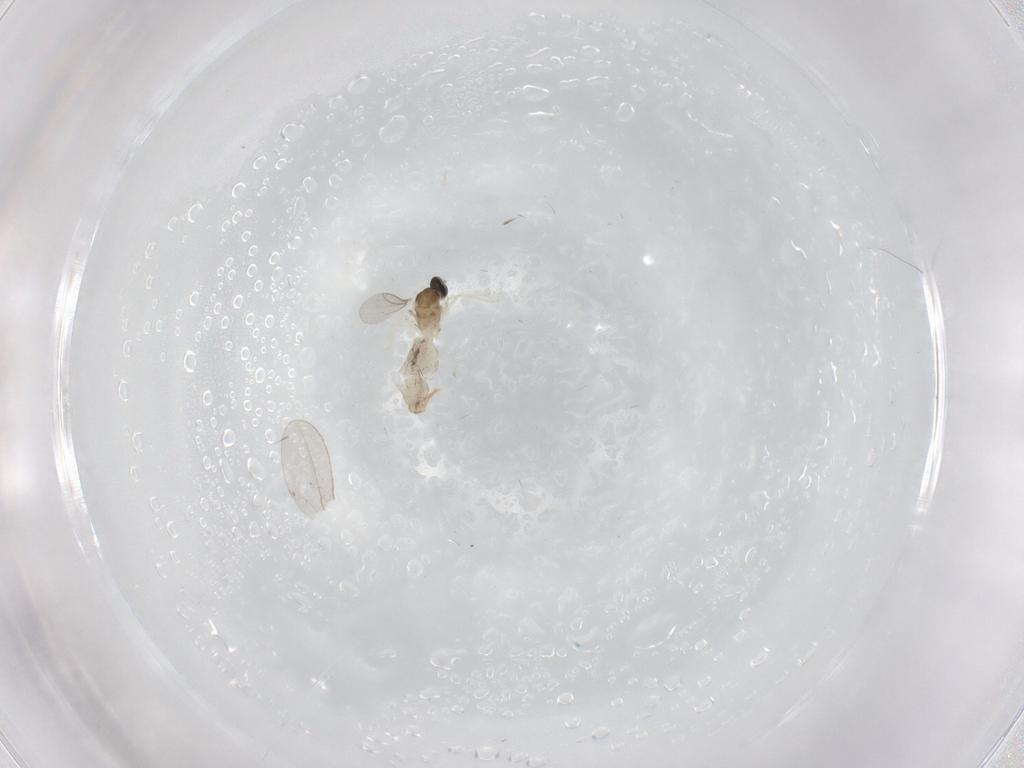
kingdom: Animalia
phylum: Arthropoda
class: Insecta
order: Diptera
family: Cecidomyiidae
